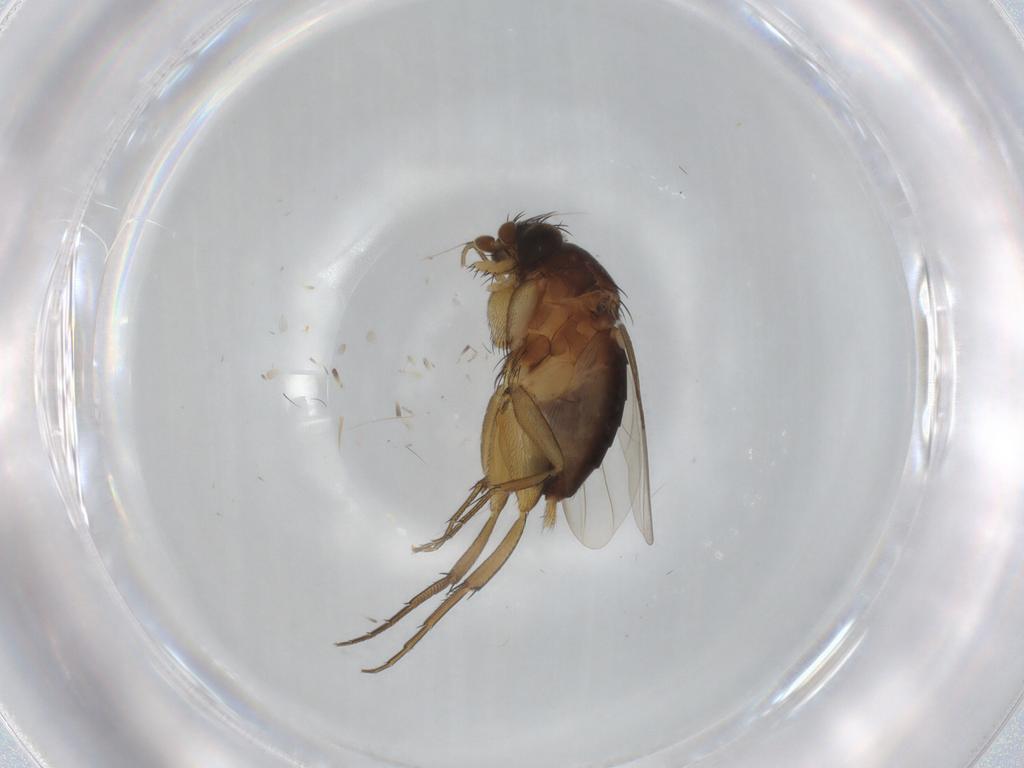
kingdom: Animalia
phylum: Arthropoda
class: Insecta
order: Diptera
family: Phoridae
